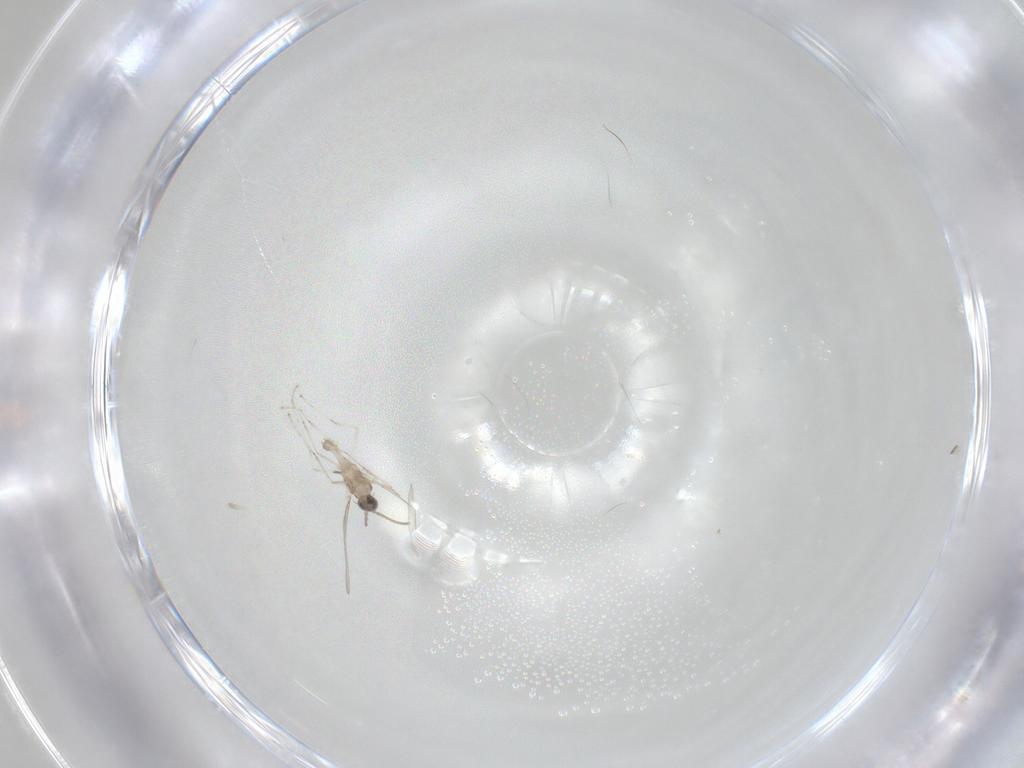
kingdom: Animalia
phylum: Arthropoda
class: Insecta
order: Diptera
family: Cecidomyiidae
